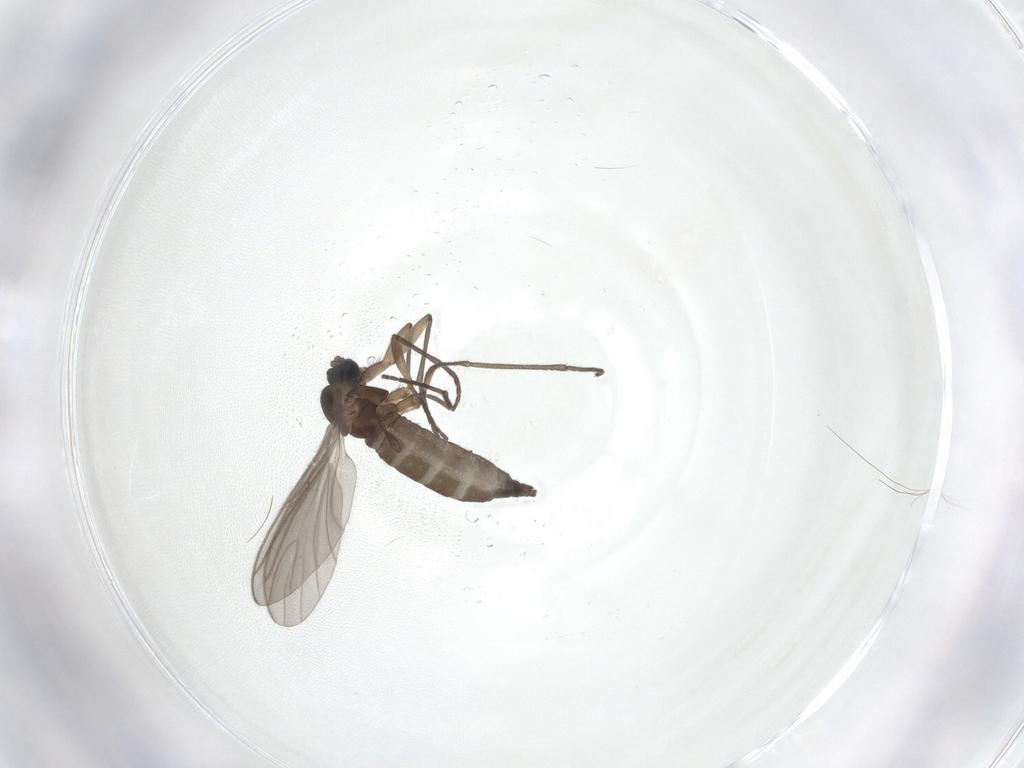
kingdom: Animalia
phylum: Arthropoda
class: Insecta
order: Diptera
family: Sciaridae
